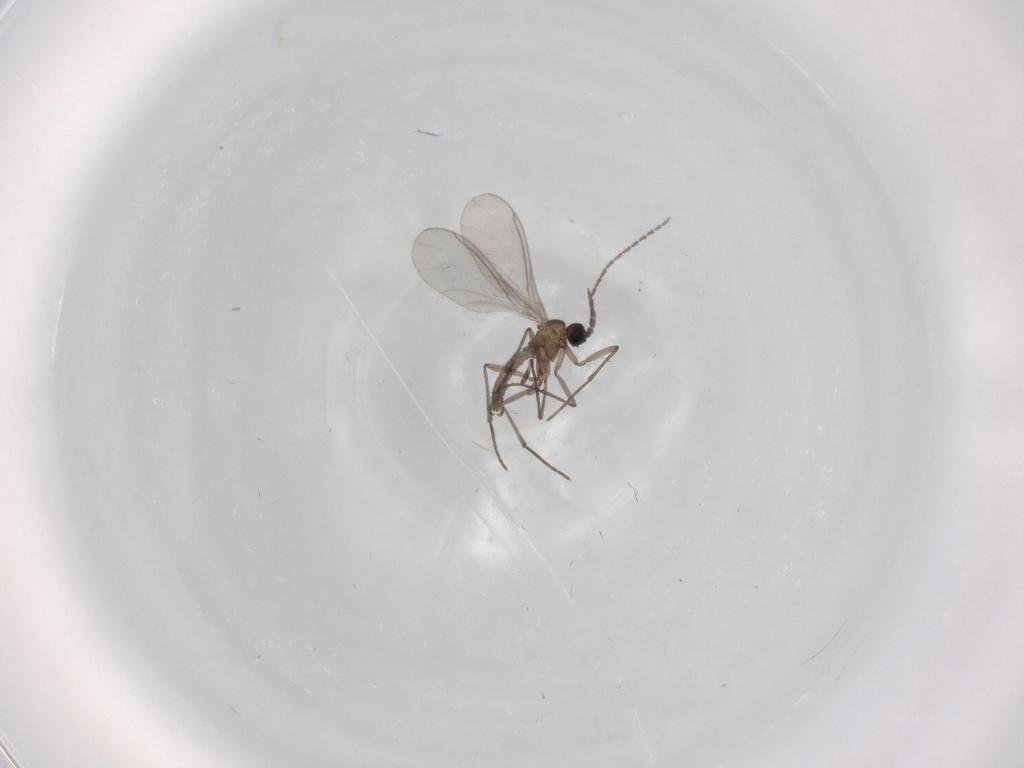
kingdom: Animalia
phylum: Arthropoda
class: Insecta
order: Diptera
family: Sciaridae
